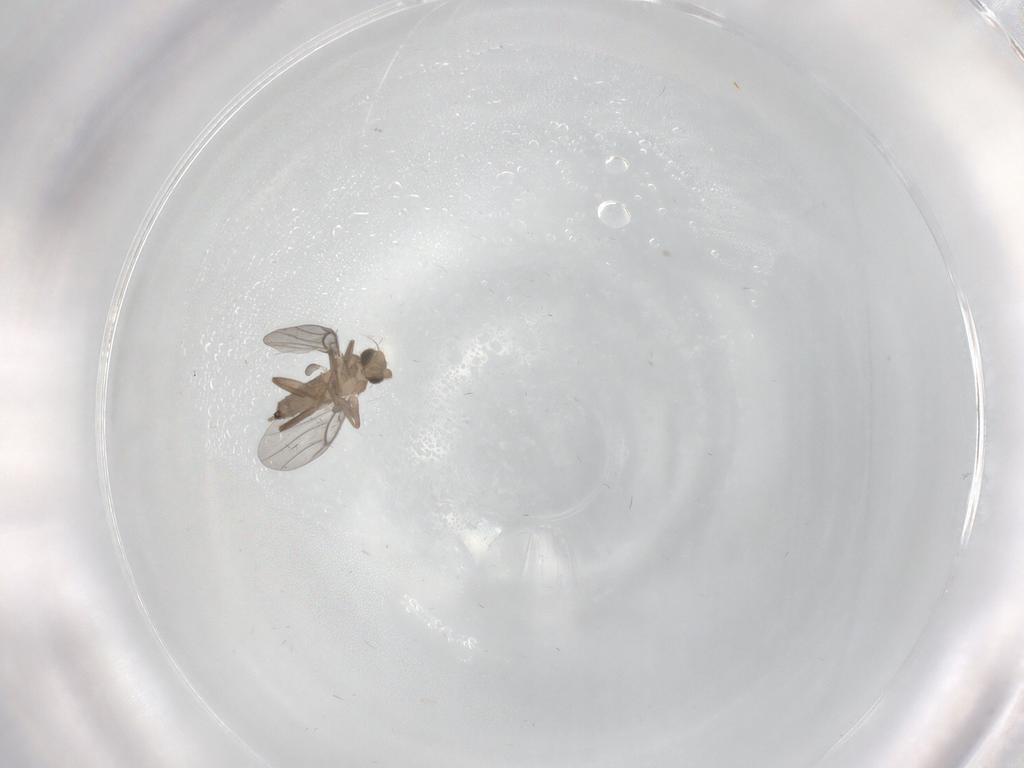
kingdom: Animalia
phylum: Arthropoda
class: Insecta
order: Diptera
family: Cecidomyiidae
